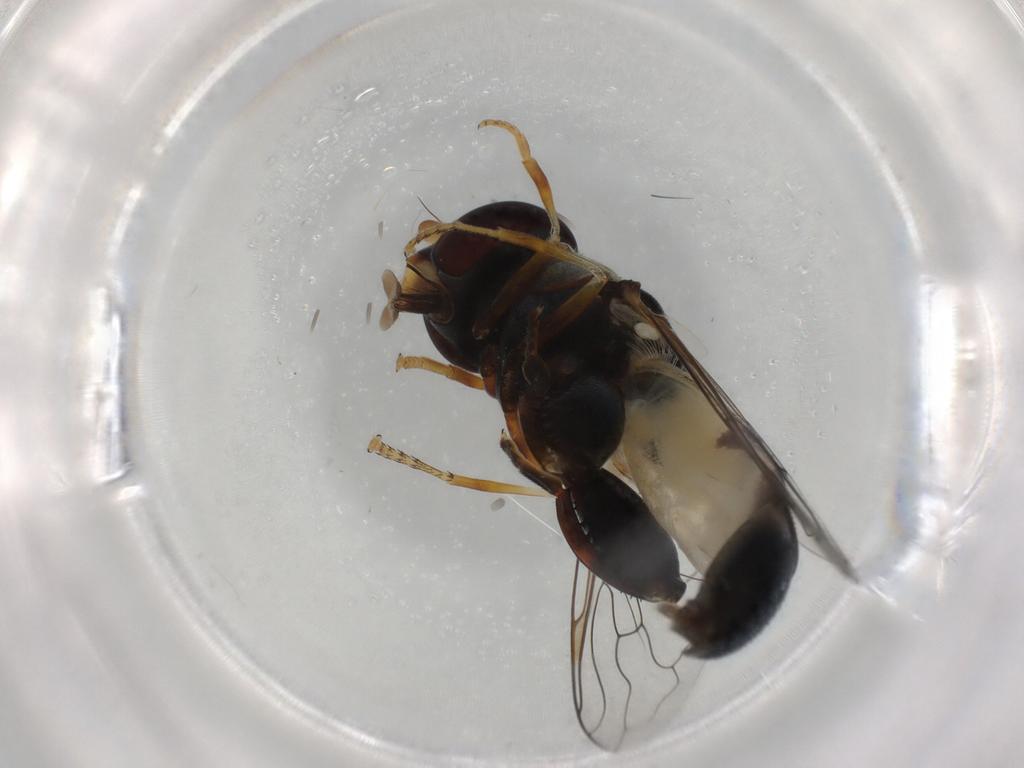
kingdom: Animalia
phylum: Arthropoda
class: Insecta
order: Diptera
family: Muscidae
